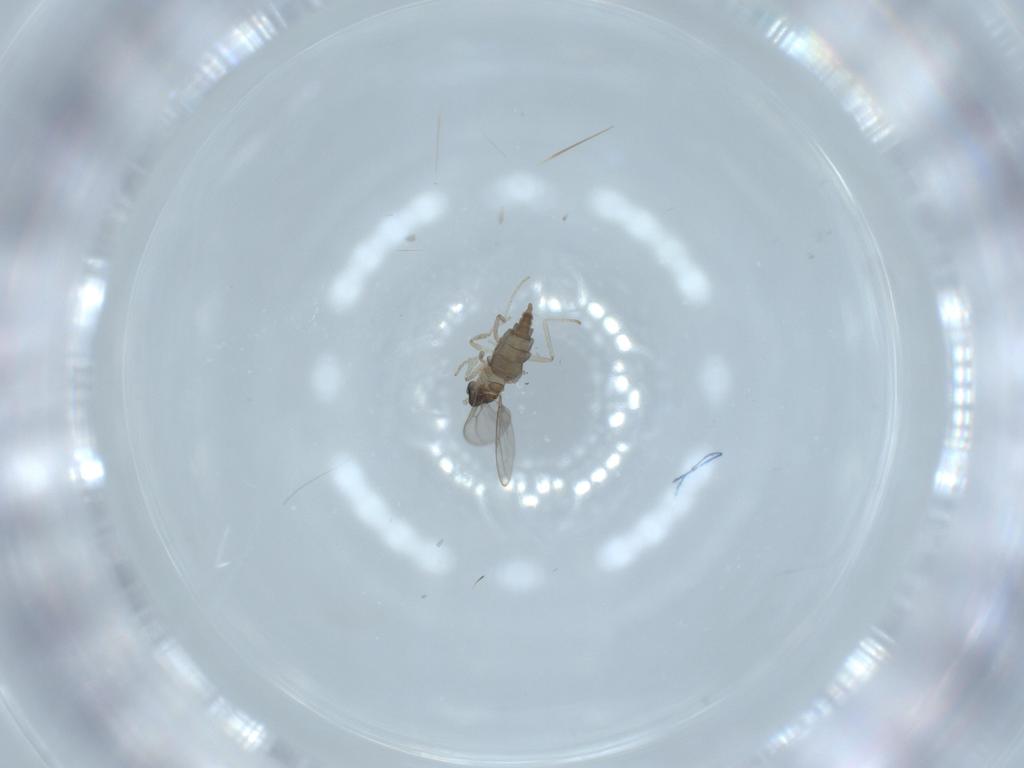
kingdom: Animalia
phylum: Arthropoda
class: Insecta
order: Diptera
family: Cecidomyiidae
